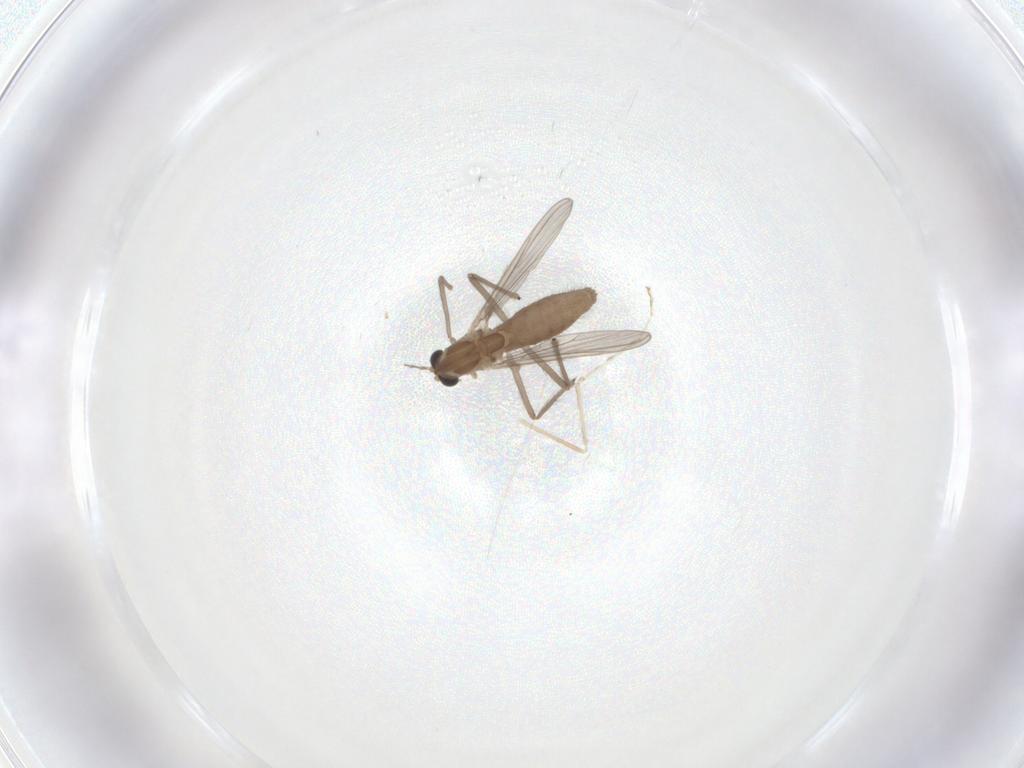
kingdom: Animalia
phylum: Arthropoda
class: Insecta
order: Diptera
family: Chironomidae
